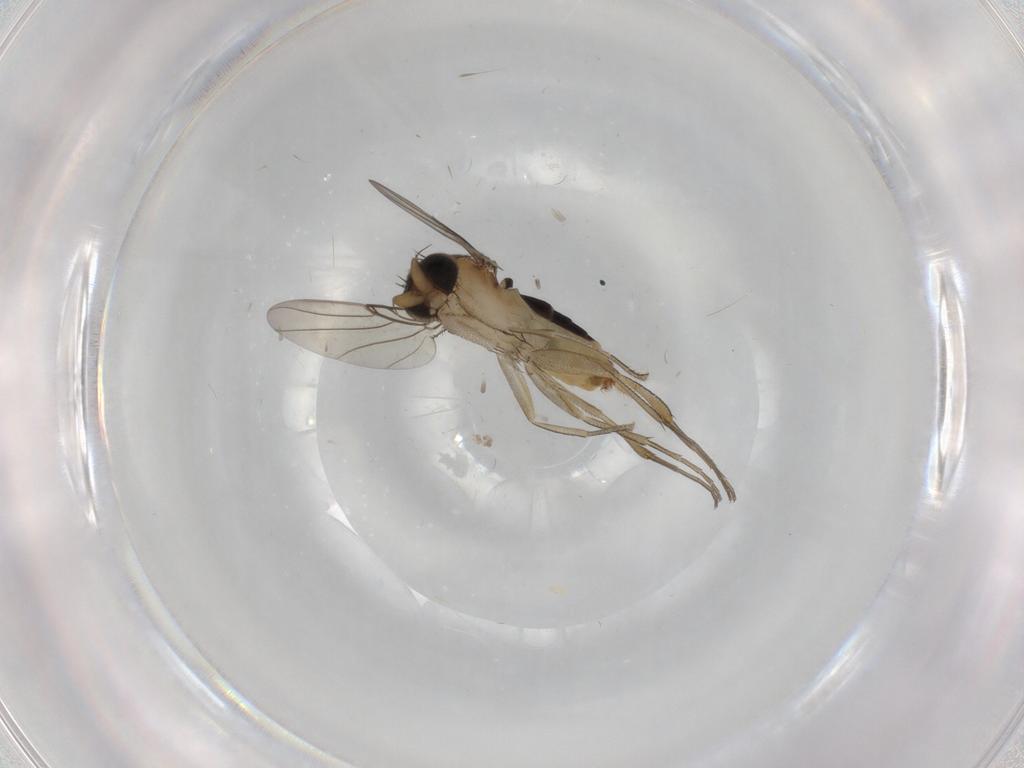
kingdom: Animalia
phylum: Arthropoda
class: Insecta
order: Diptera
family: Phoridae
